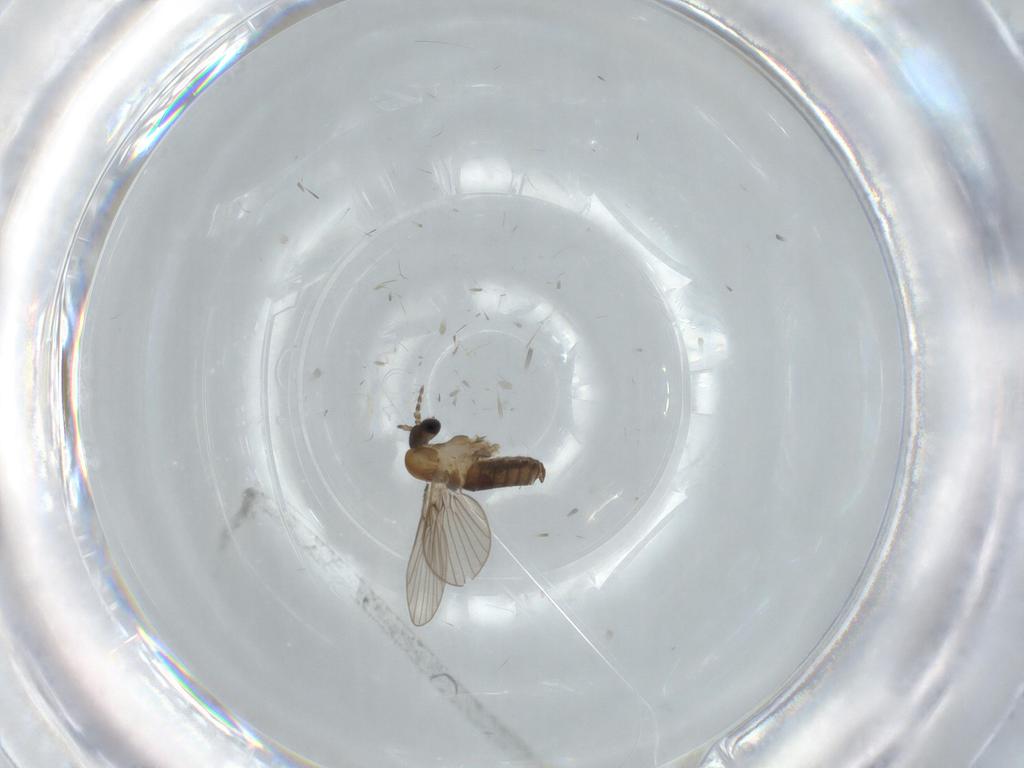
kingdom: Animalia
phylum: Arthropoda
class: Insecta
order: Diptera
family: Psychodidae
